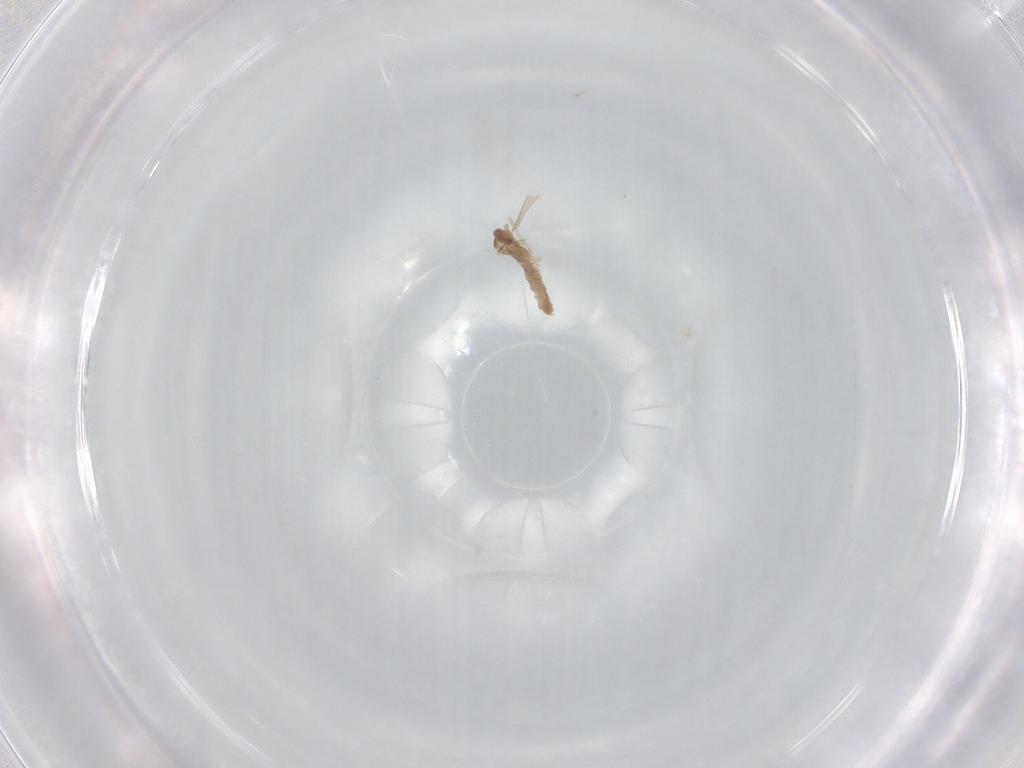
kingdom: Animalia
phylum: Arthropoda
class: Insecta
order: Diptera
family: Cecidomyiidae
